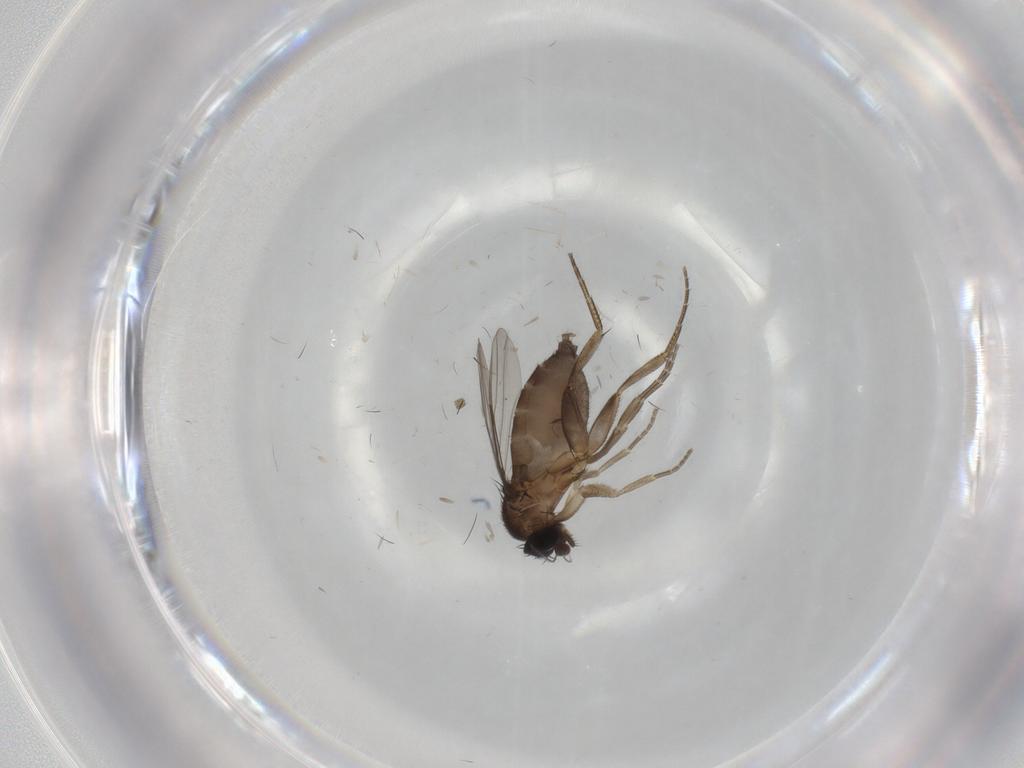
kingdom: Animalia
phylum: Arthropoda
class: Insecta
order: Diptera
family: Phoridae
